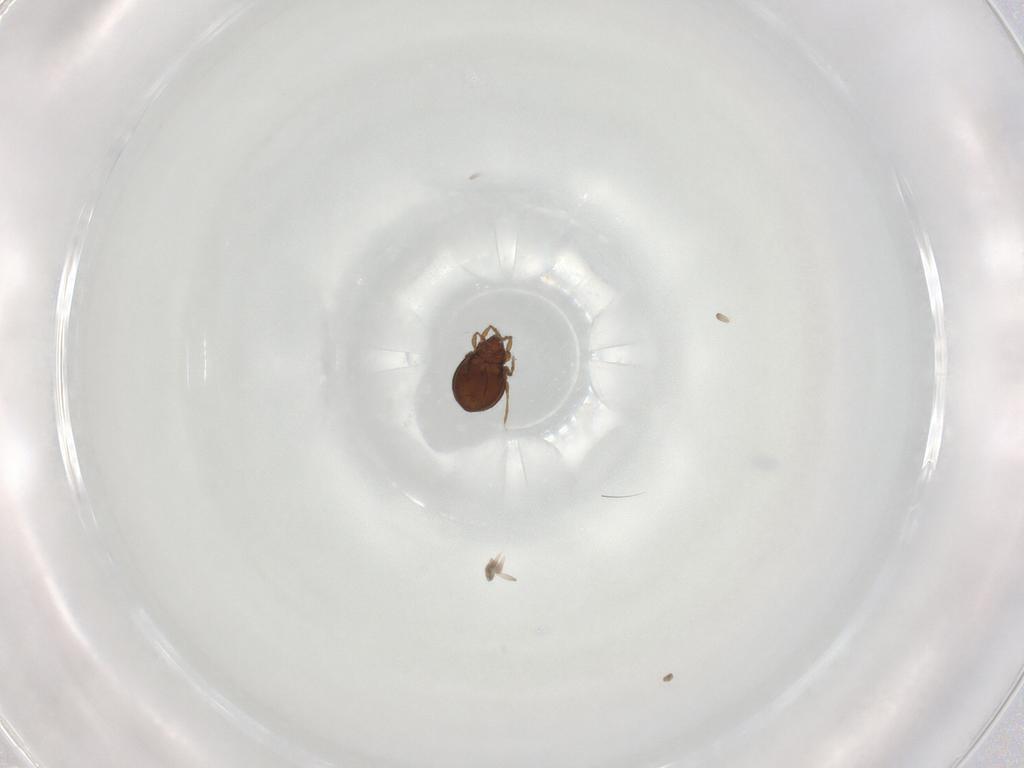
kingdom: Animalia
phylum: Arthropoda
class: Arachnida
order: Sarcoptiformes
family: Oribatulidae
